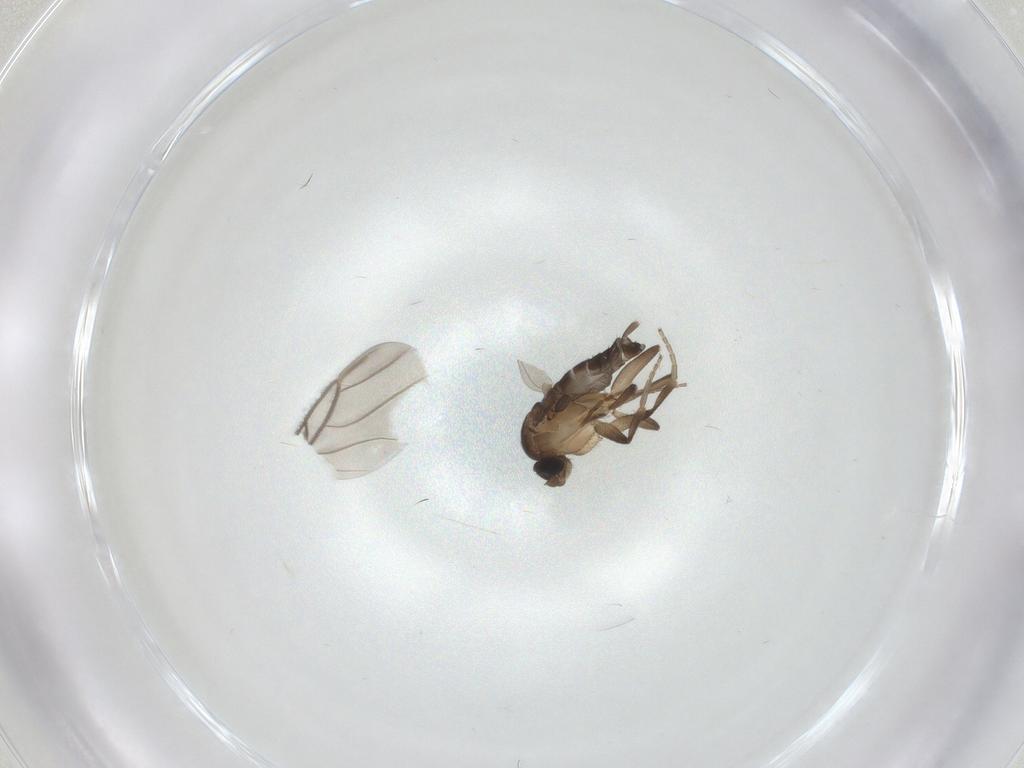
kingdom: Animalia
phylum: Arthropoda
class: Insecta
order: Diptera
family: Phoridae
